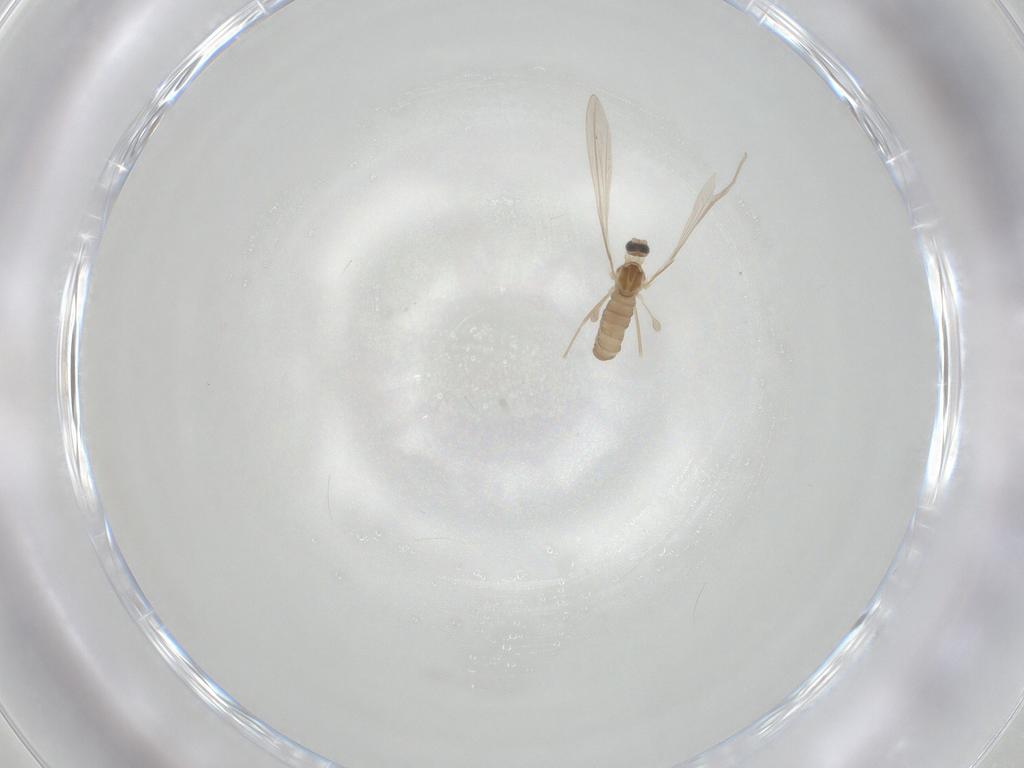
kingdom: Animalia
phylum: Arthropoda
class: Insecta
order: Diptera
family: Cecidomyiidae
